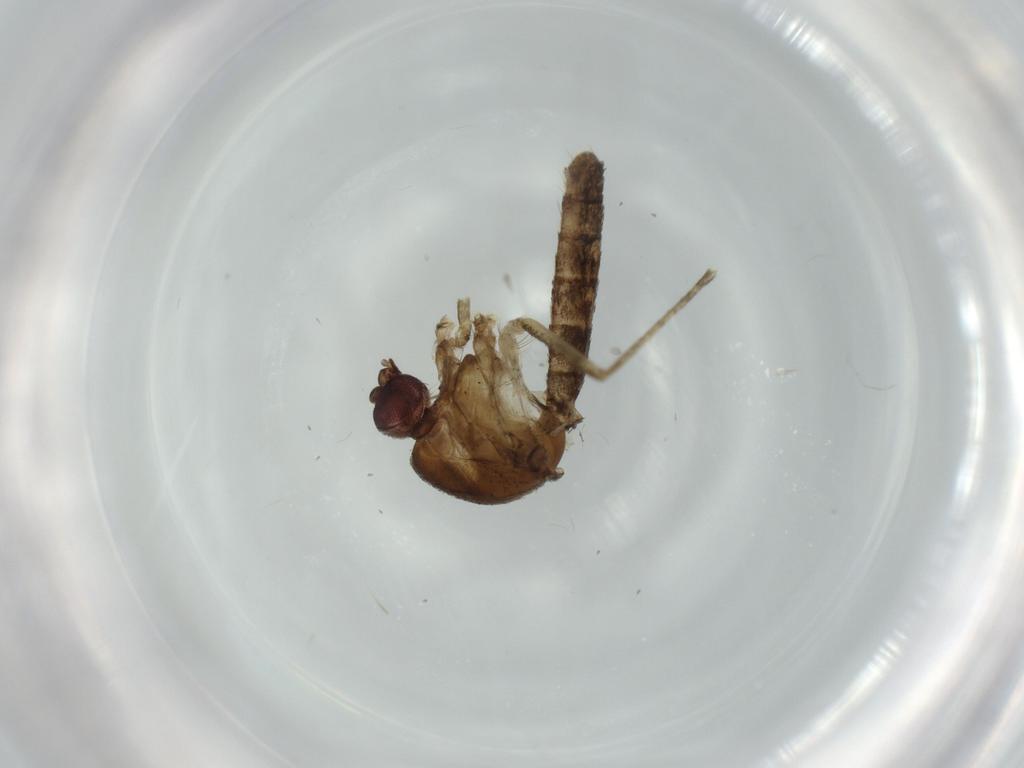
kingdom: Animalia
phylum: Arthropoda
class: Insecta
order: Diptera
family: Culicidae
